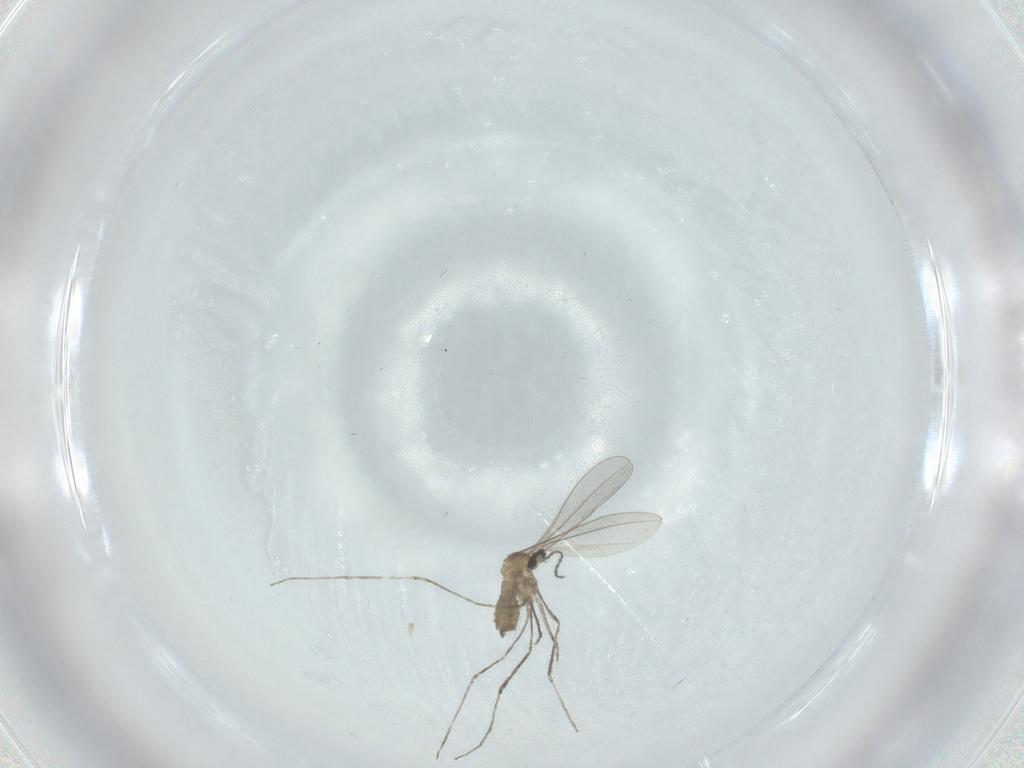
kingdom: Animalia
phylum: Arthropoda
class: Insecta
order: Diptera
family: Cecidomyiidae
